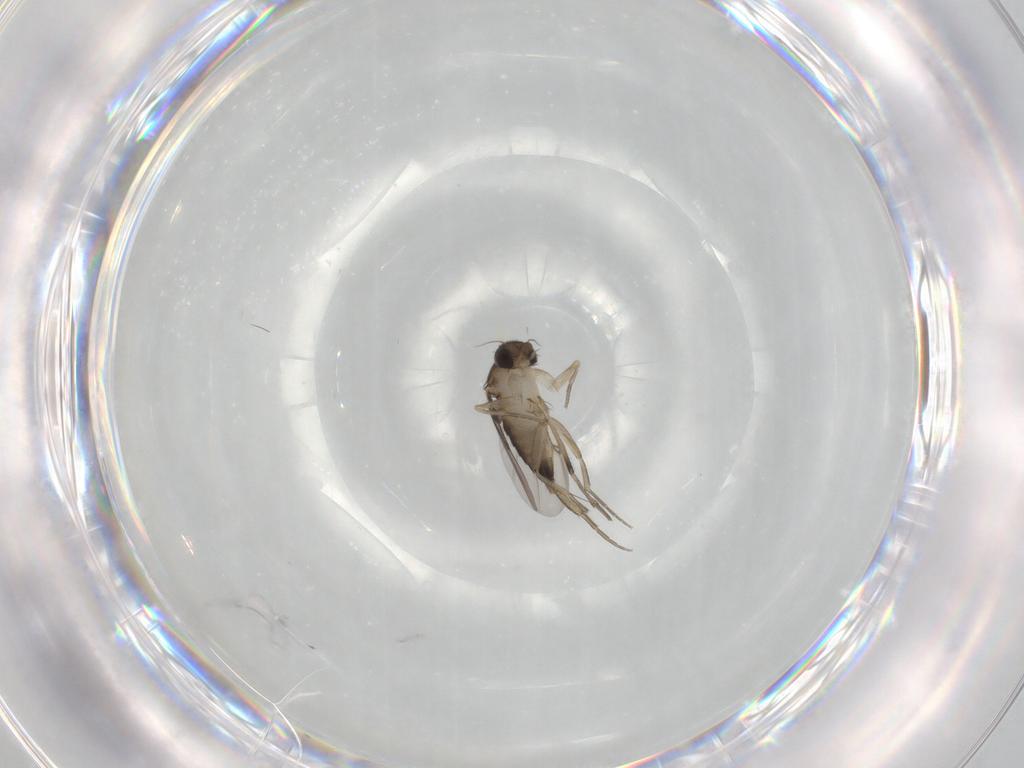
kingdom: Animalia
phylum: Arthropoda
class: Insecta
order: Diptera
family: Phoridae
